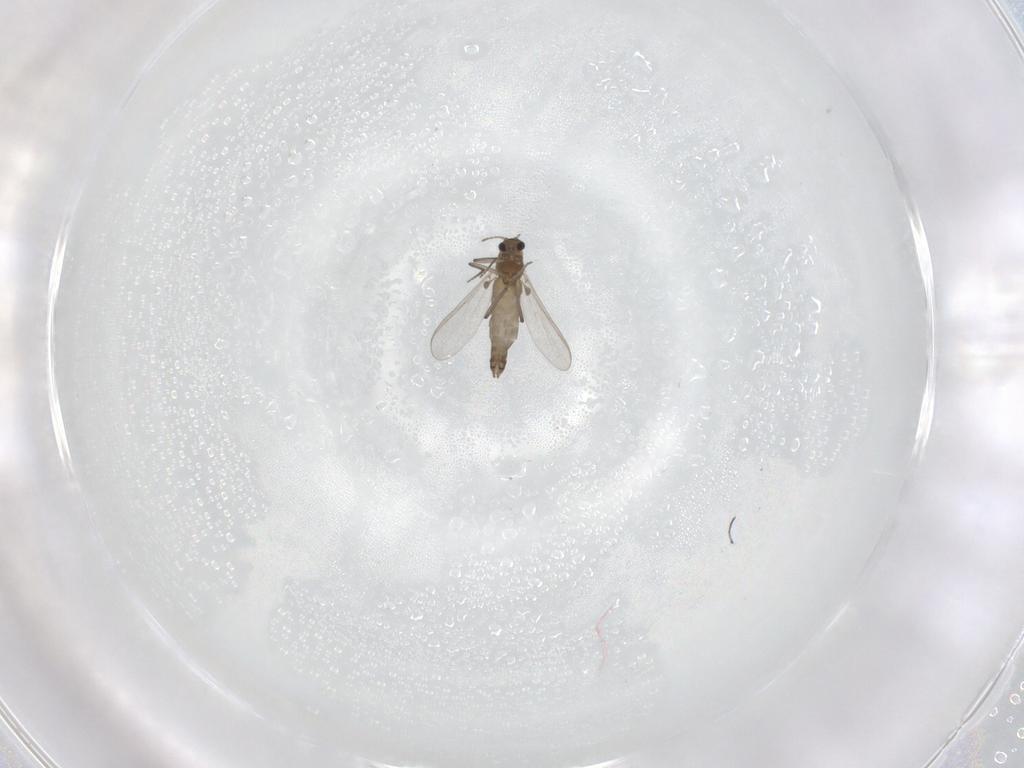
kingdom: Animalia
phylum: Arthropoda
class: Insecta
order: Diptera
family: Chironomidae
